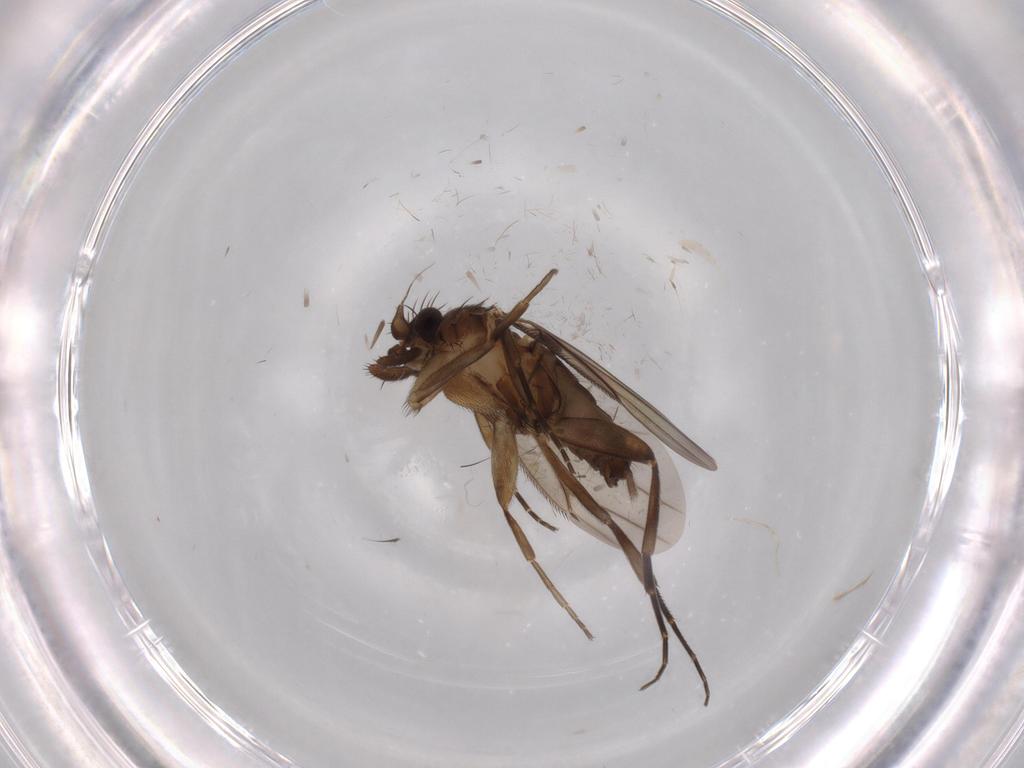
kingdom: Animalia
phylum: Arthropoda
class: Insecta
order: Diptera
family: Phoridae
